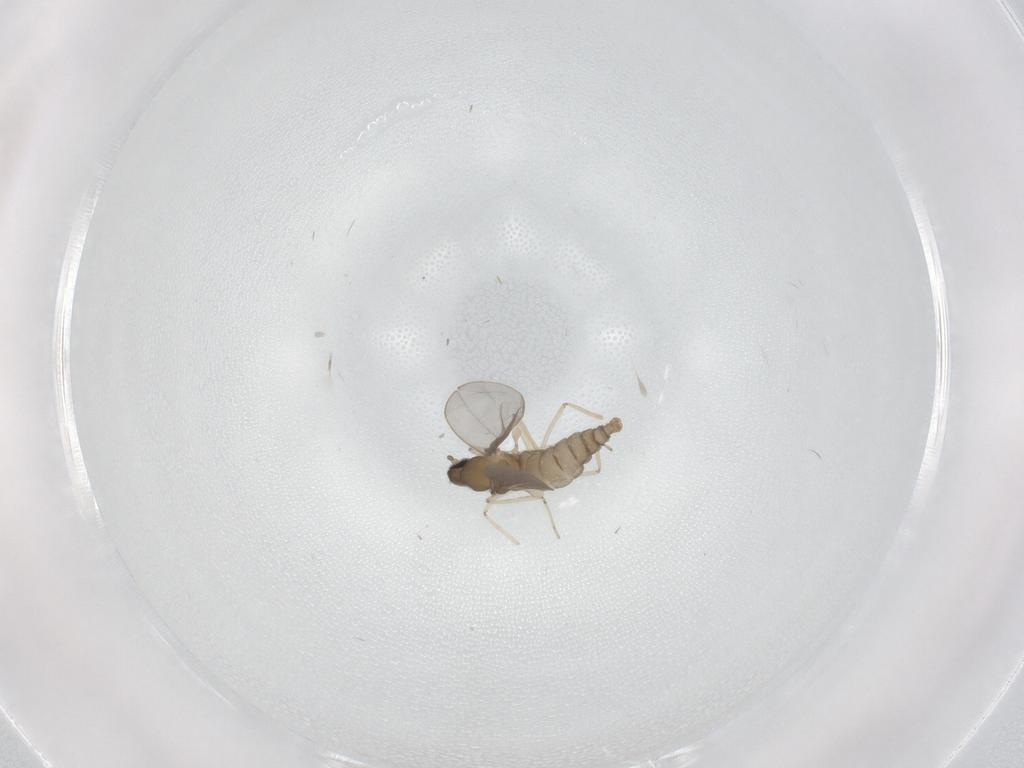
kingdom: Animalia
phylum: Arthropoda
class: Insecta
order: Diptera
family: Ceratopogonidae
